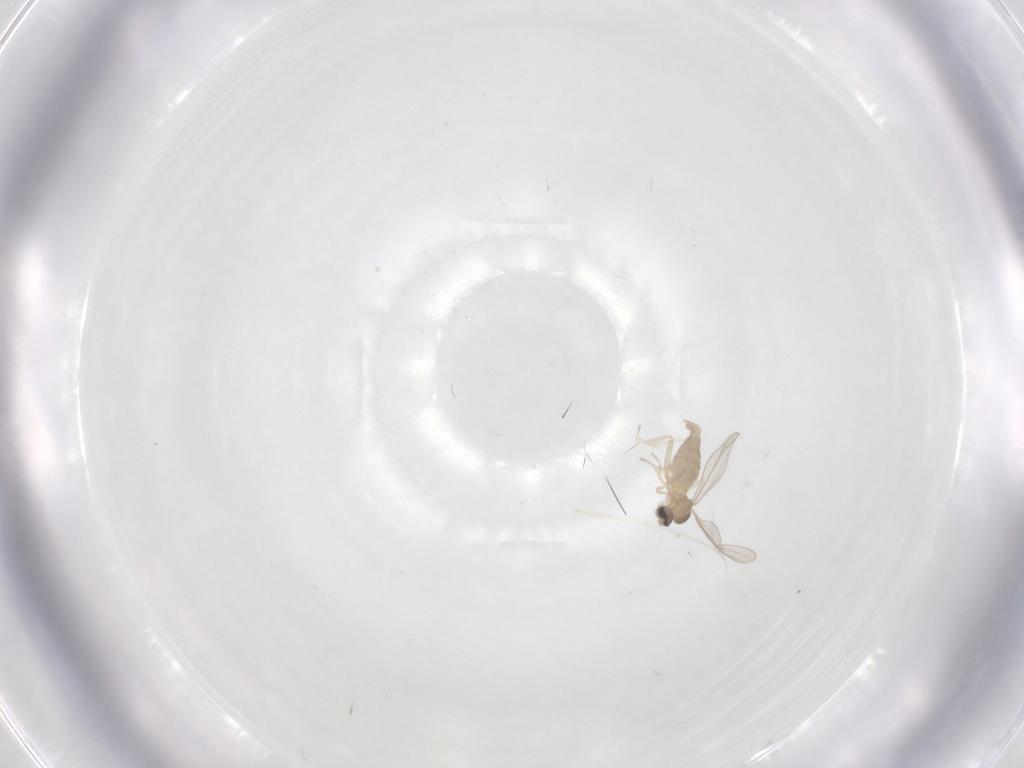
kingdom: Animalia
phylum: Arthropoda
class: Insecta
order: Diptera
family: Cecidomyiidae
